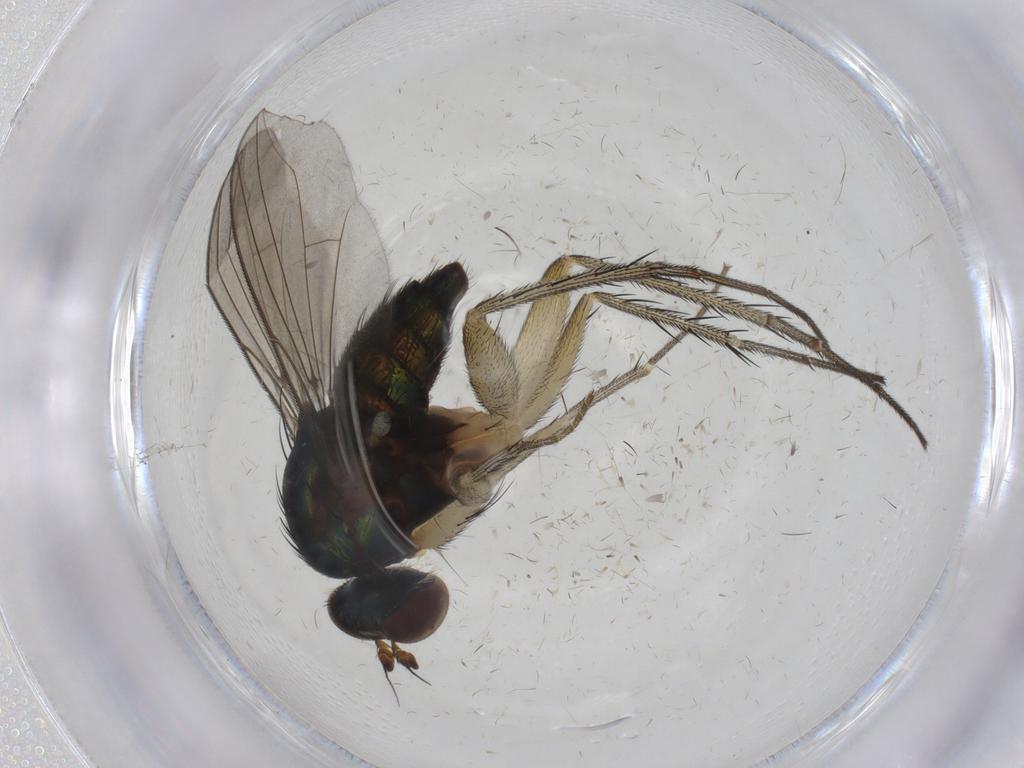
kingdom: Animalia
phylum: Arthropoda
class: Insecta
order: Diptera
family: Dolichopodidae
